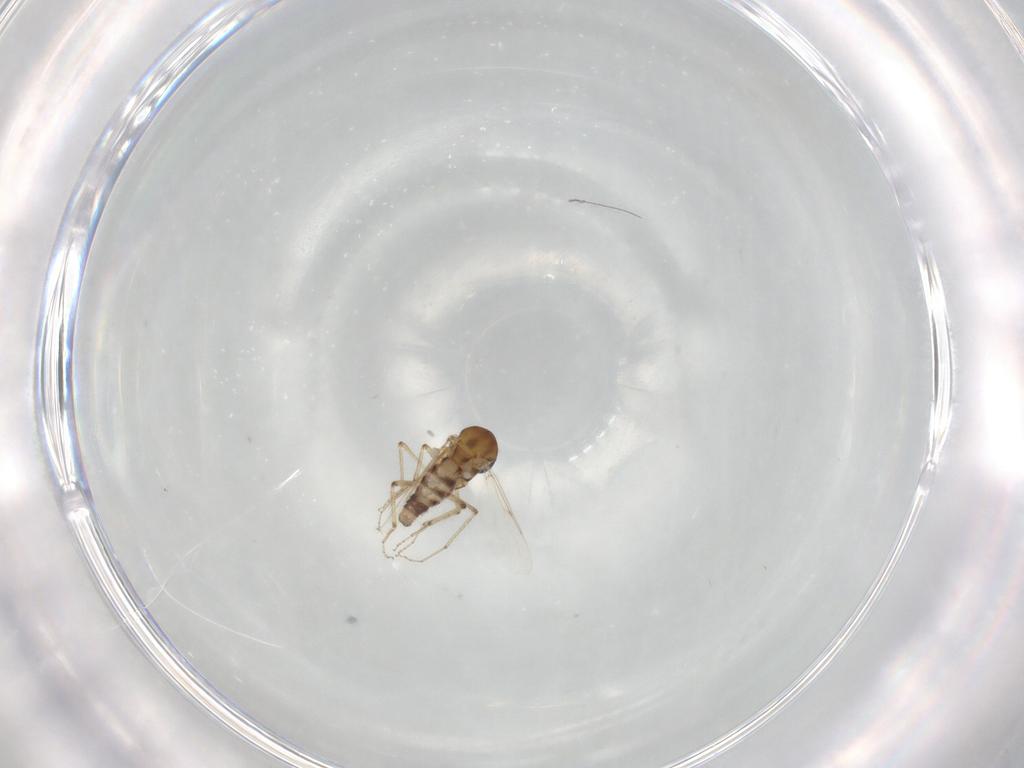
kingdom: Animalia
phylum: Arthropoda
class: Insecta
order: Diptera
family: Ceratopogonidae
